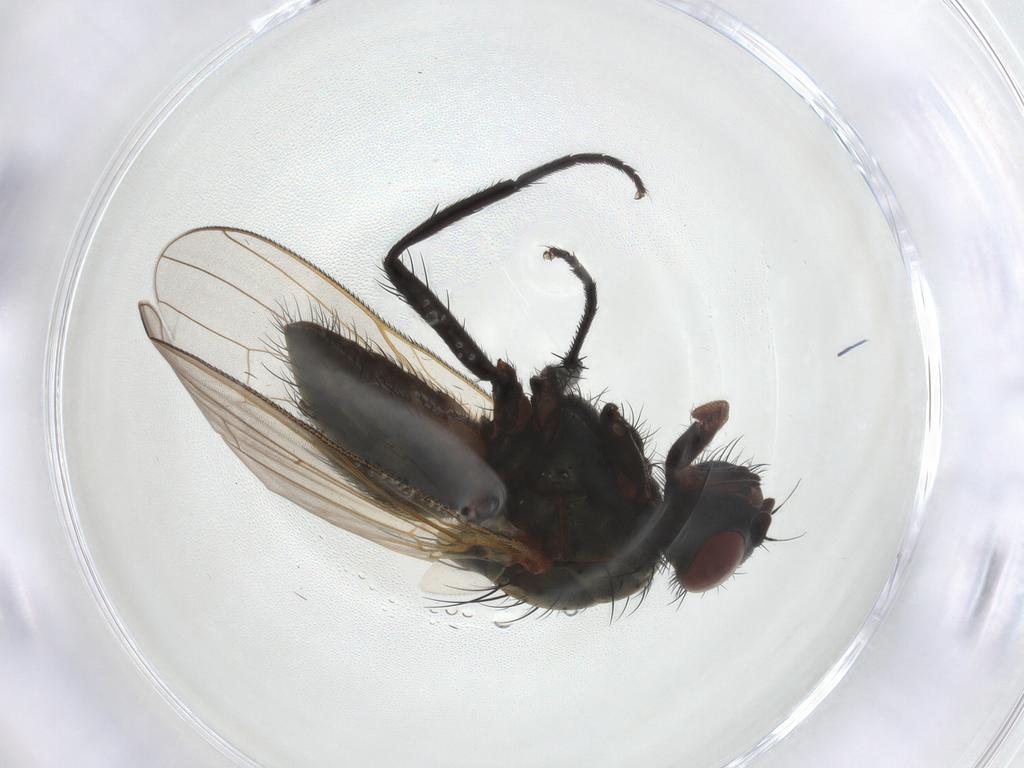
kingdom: Animalia
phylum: Arthropoda
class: Insecta
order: Diptera
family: Anthomyiidae
